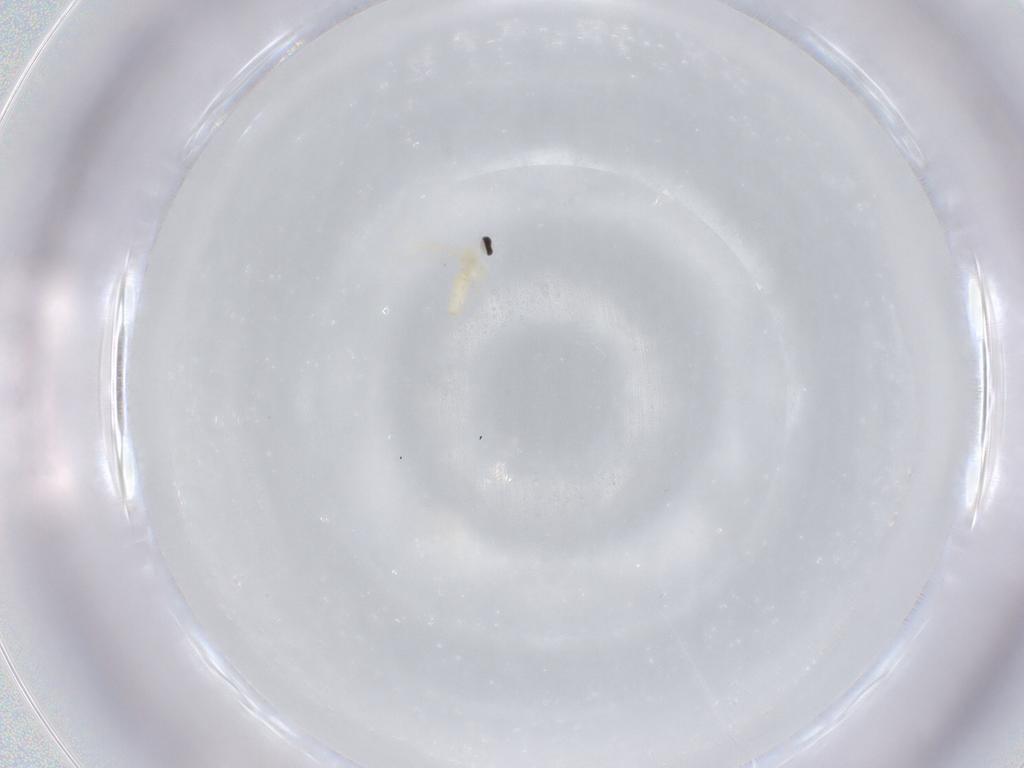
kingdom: Animalia
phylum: Arthropoda
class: Insecta
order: Diptera
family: Cecidomyiidae
